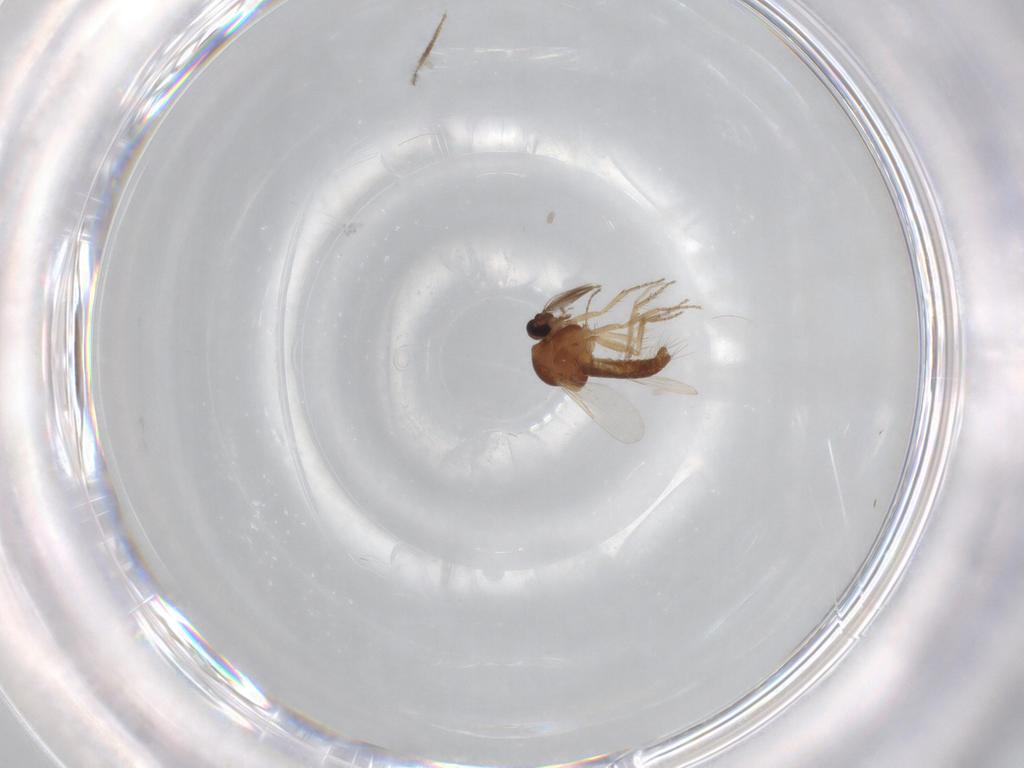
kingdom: Animalia
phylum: Arthropoda
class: Insecta
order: Diptera
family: Ceratopogonidae
